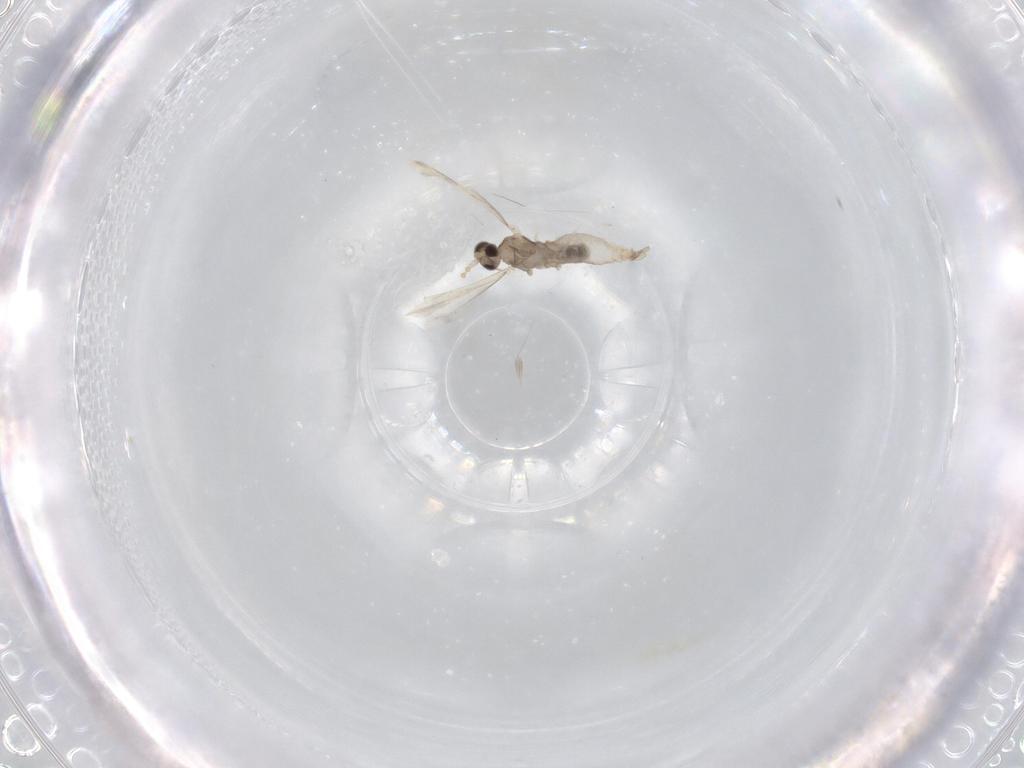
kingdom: Animalia
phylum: Arthropoda
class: Insecta
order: Diptera
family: Cecidomyiidae
